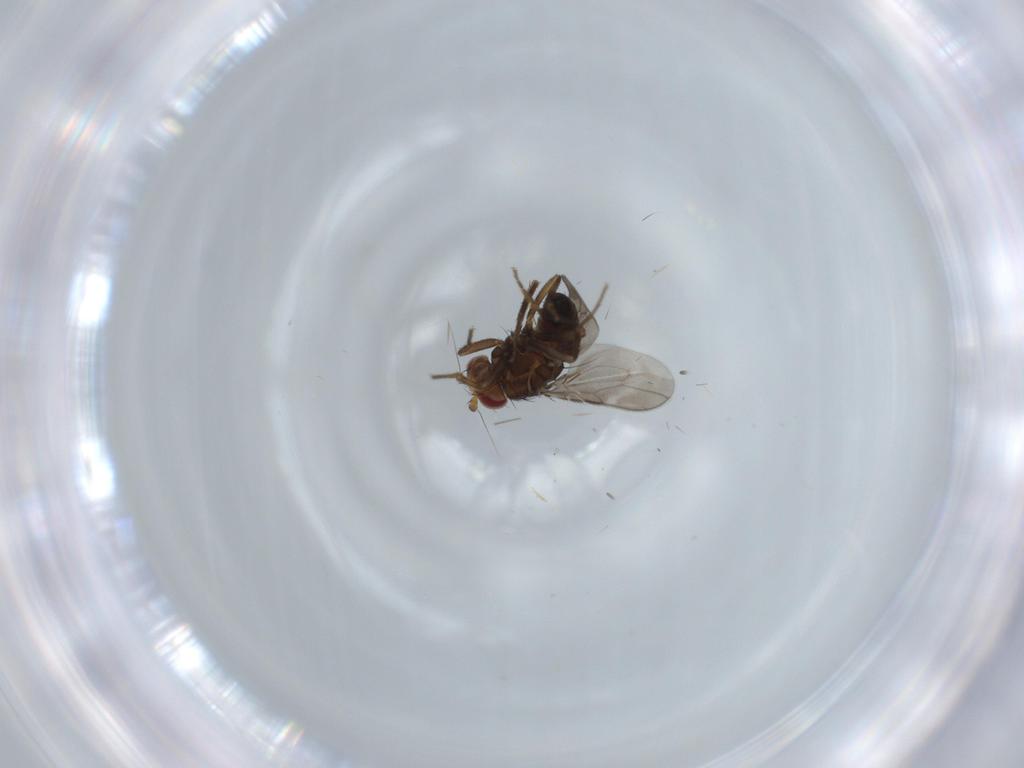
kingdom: Animalia
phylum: Arthropoda
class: Insecta
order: Diptera
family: Sphaeroceridae
